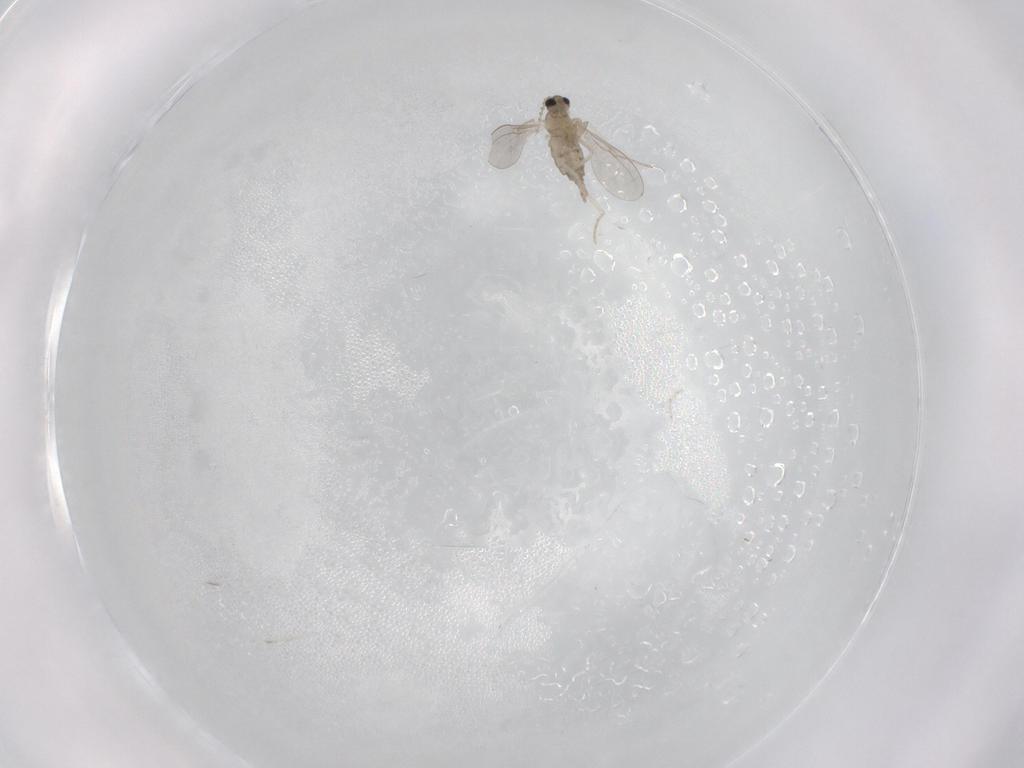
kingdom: Animalia
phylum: Arthropoda
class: Insecta
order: Diptera
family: Cecidomyiidae
